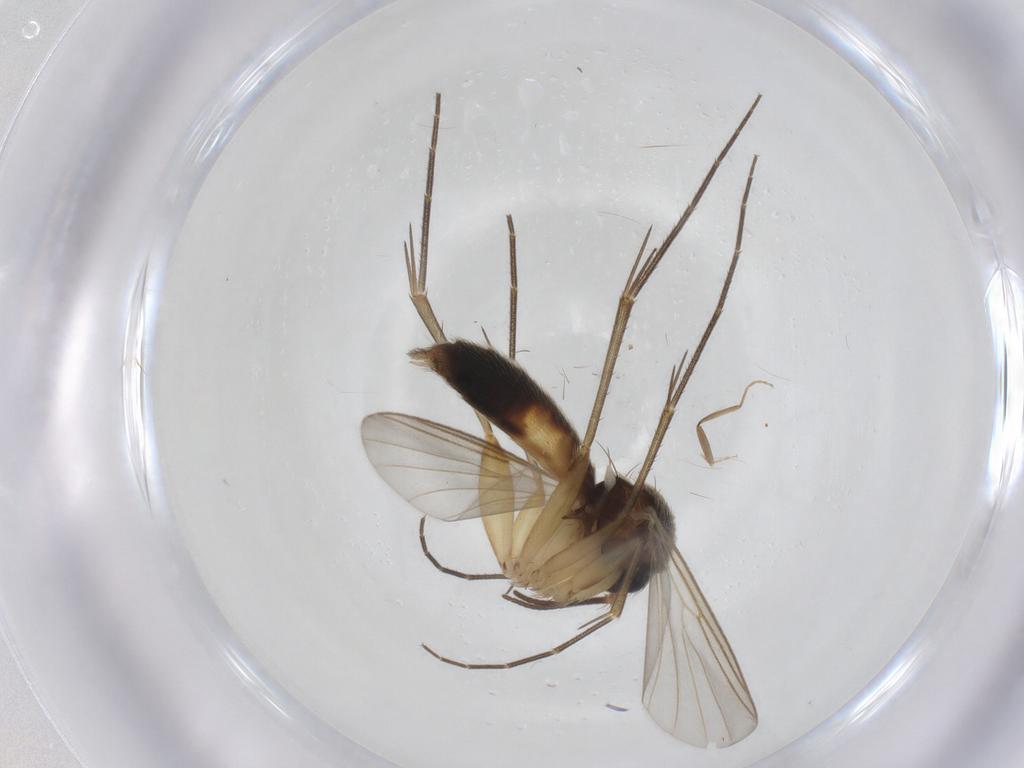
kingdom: Animalia
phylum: Arthropoda
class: Insecta
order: Diptera
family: Mycetophilidae
